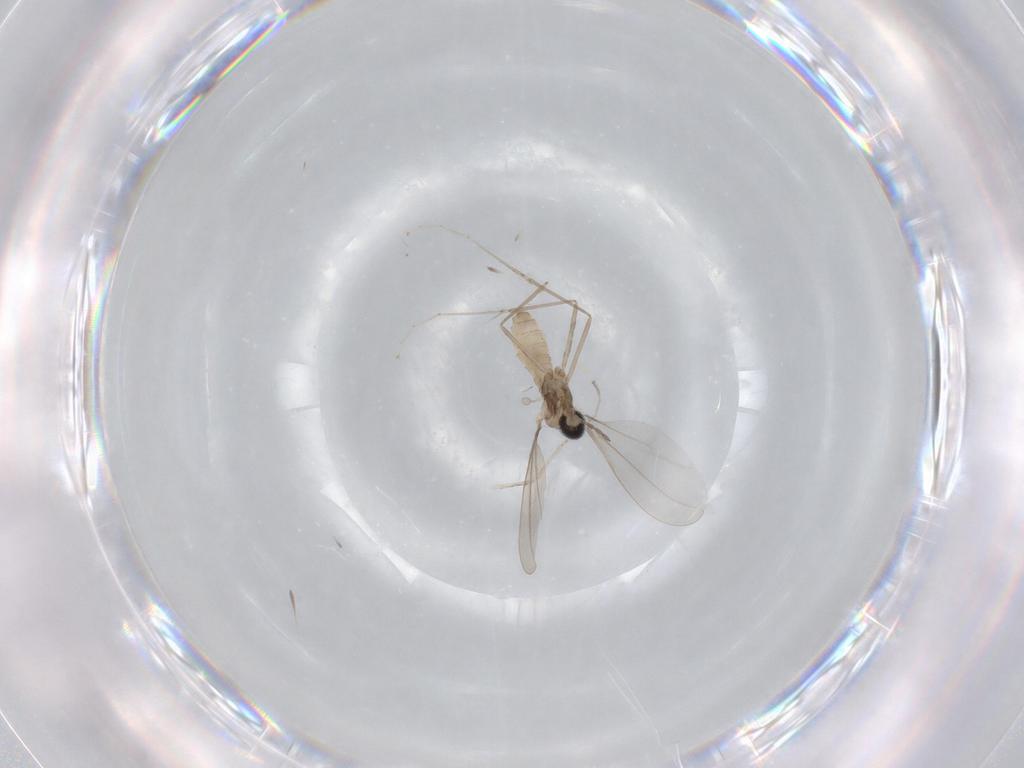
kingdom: Animalia
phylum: Arthropoda
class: Insecta
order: Diptera
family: Cecidomyiidae
